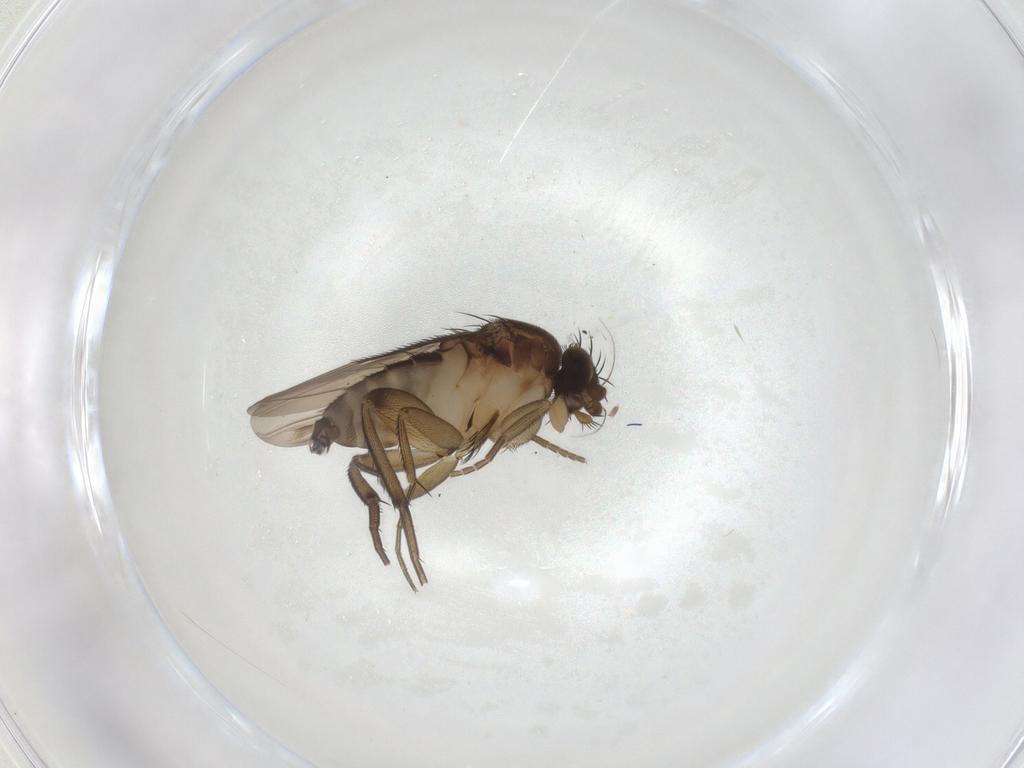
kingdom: Animalia
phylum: Arthropoda
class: Insecta
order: Diptera
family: Phoridae
